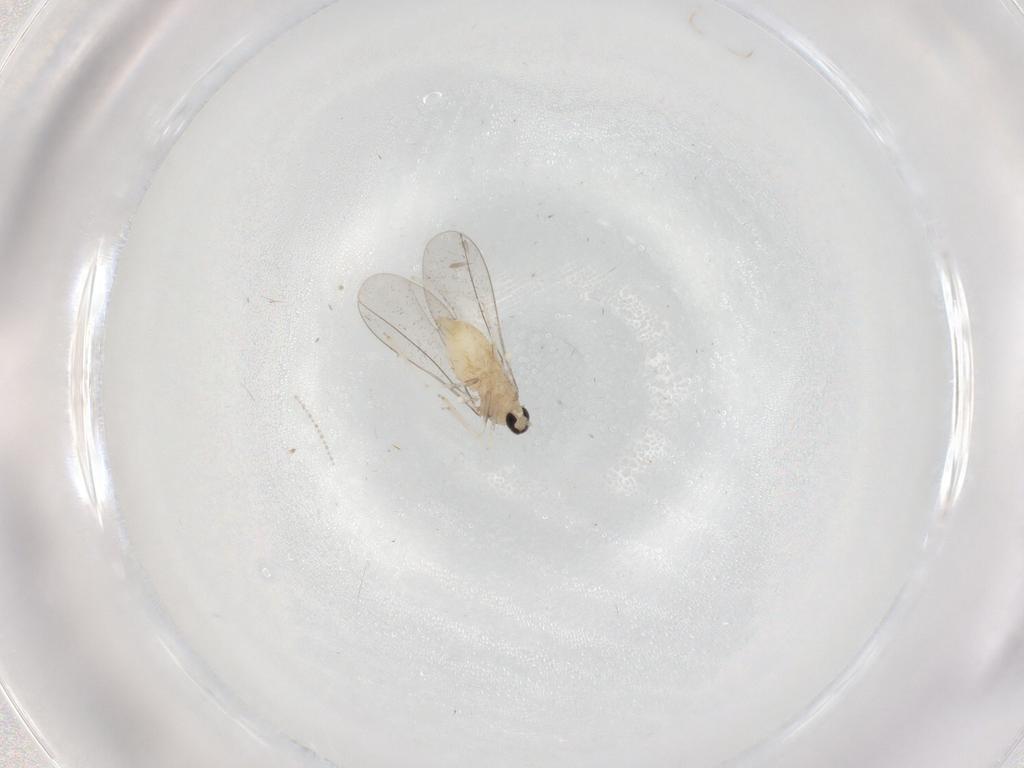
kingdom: Animalia
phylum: Arthropoda
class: Insecta
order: Diptera
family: Cecidomyiidae
